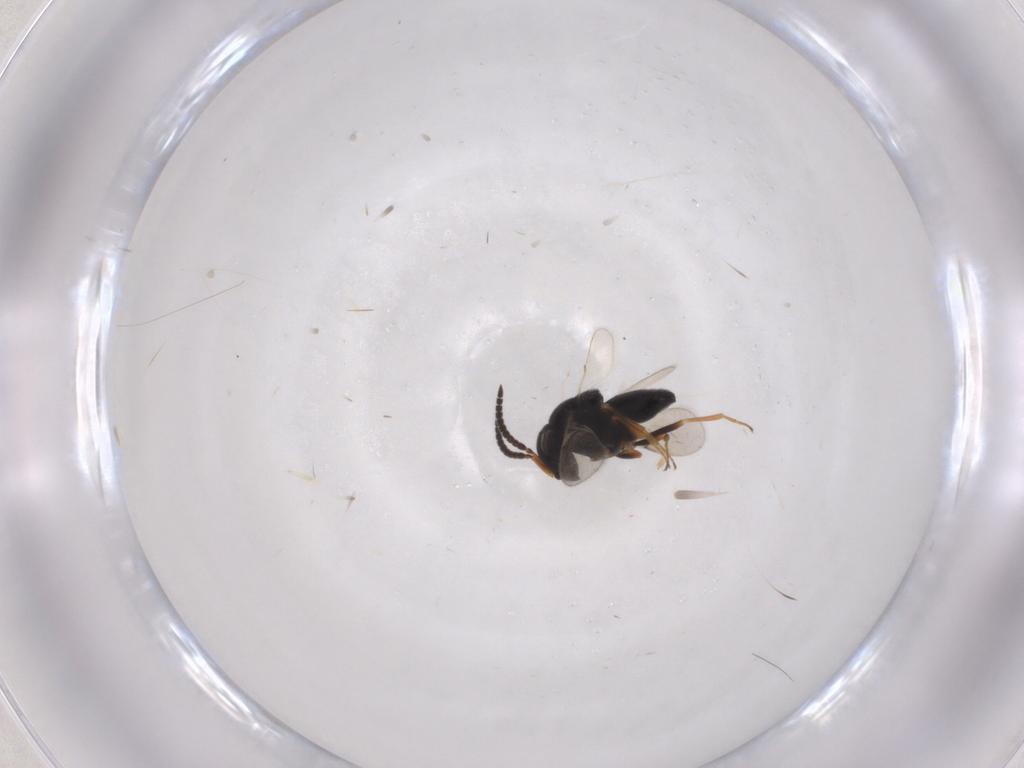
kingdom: Animalia
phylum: Arthropoda
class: Insecta
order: Hymenoptera
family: Scelionidae
